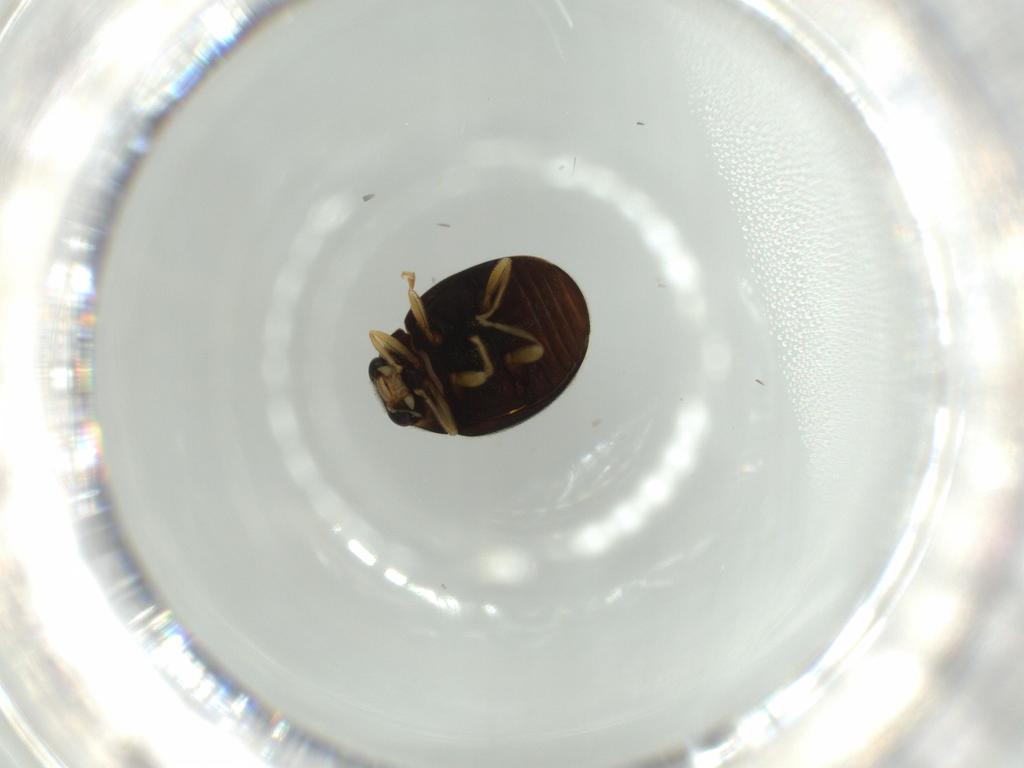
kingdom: Animalia
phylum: Arthropoda
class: Insecta
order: Coleoptera
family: Coccinellidae
